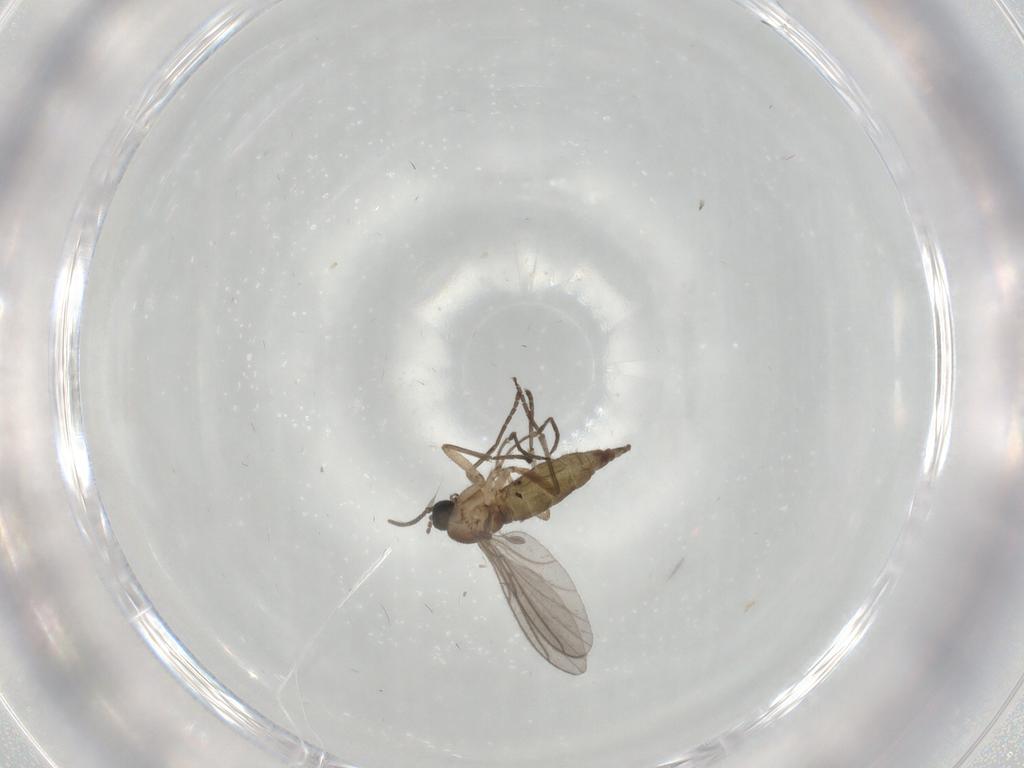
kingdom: Animalia
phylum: Arthropoda
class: Insecta
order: Diptera
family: Sciaridae
